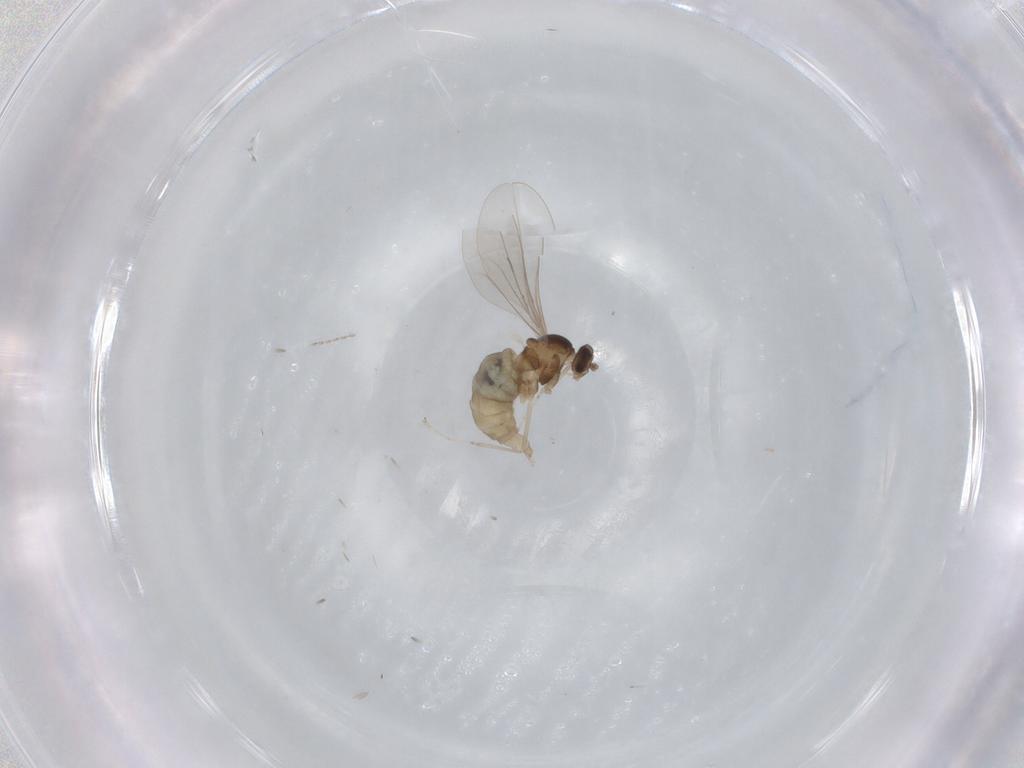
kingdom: Animalia
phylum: Arthropoda
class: Insecta
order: Diptera
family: Cecidomyiidae
